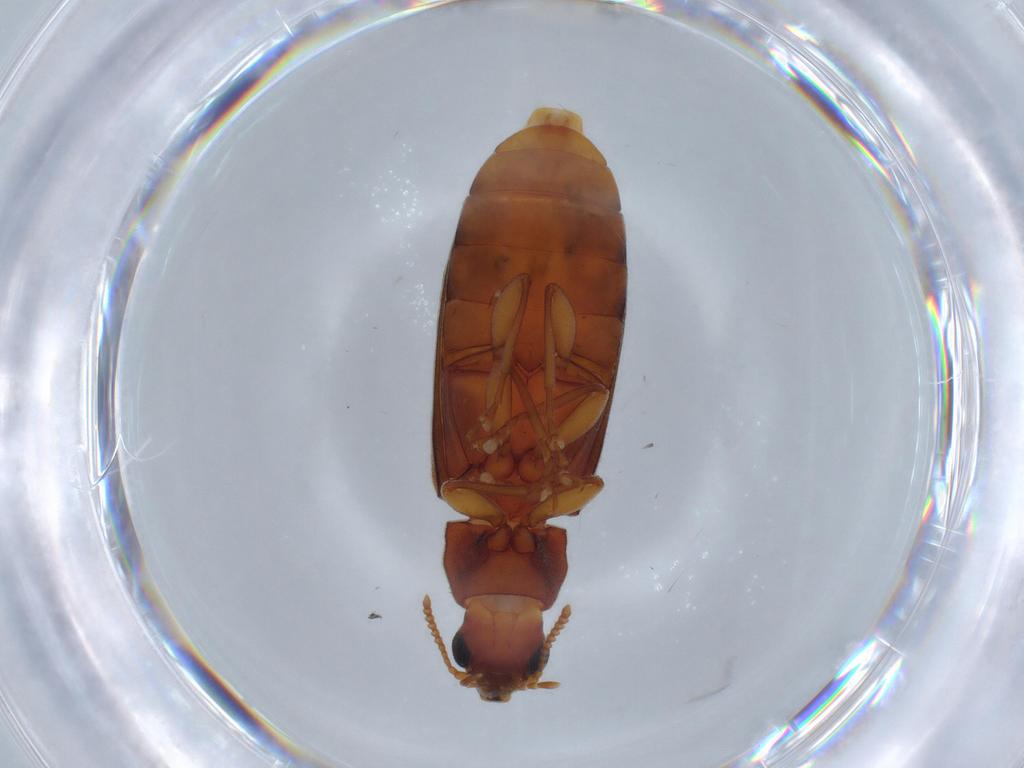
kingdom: Animalia
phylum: Arthropoda
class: Insecta
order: Coleoptera
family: Mycteridae
